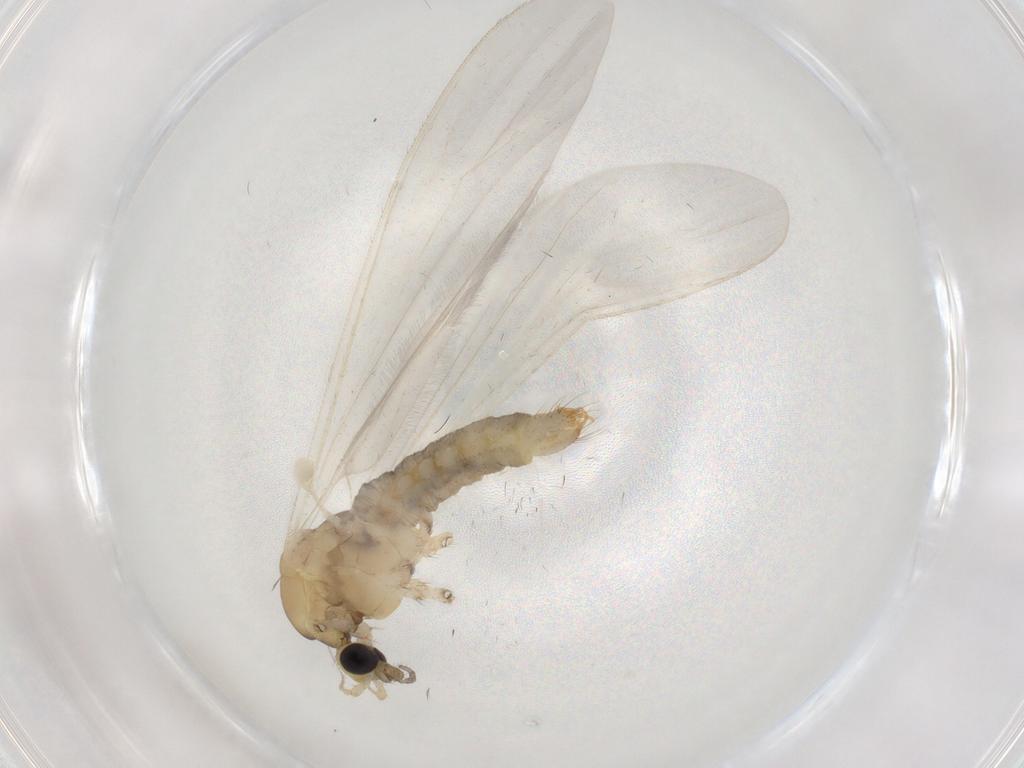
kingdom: Animalia
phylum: Arthropoda
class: Insecta
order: Diptera
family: Limoniidae
